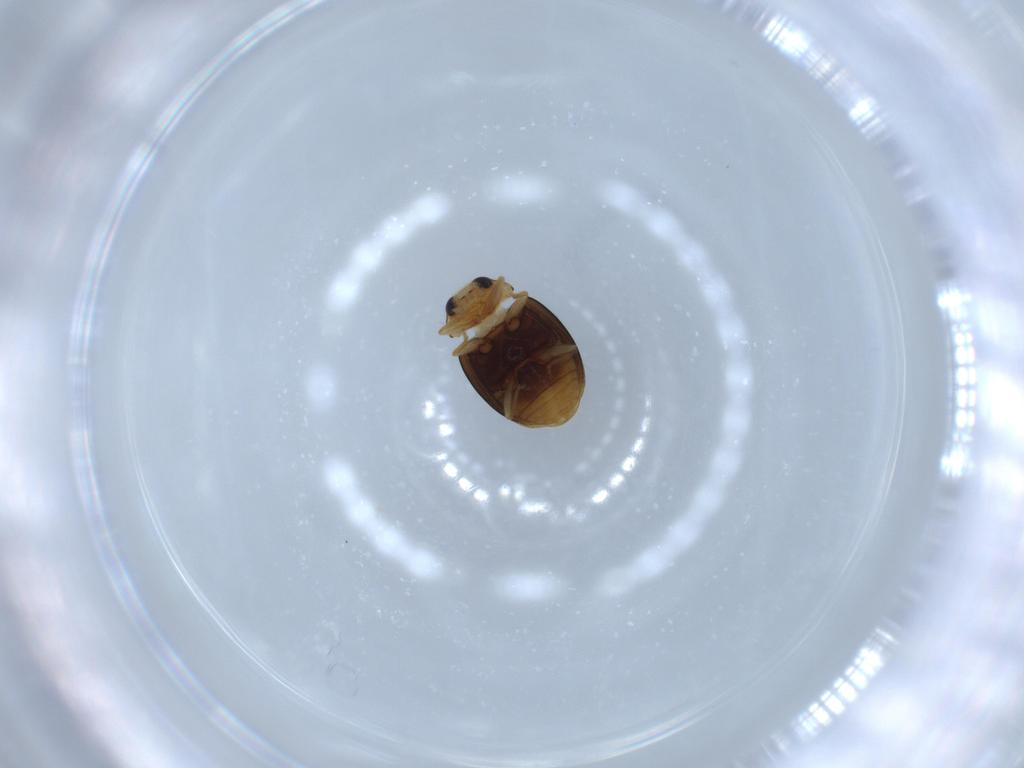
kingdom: Animalia
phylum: Arthropoda
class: Insecta
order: Coleoptera
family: Coccinellidae
